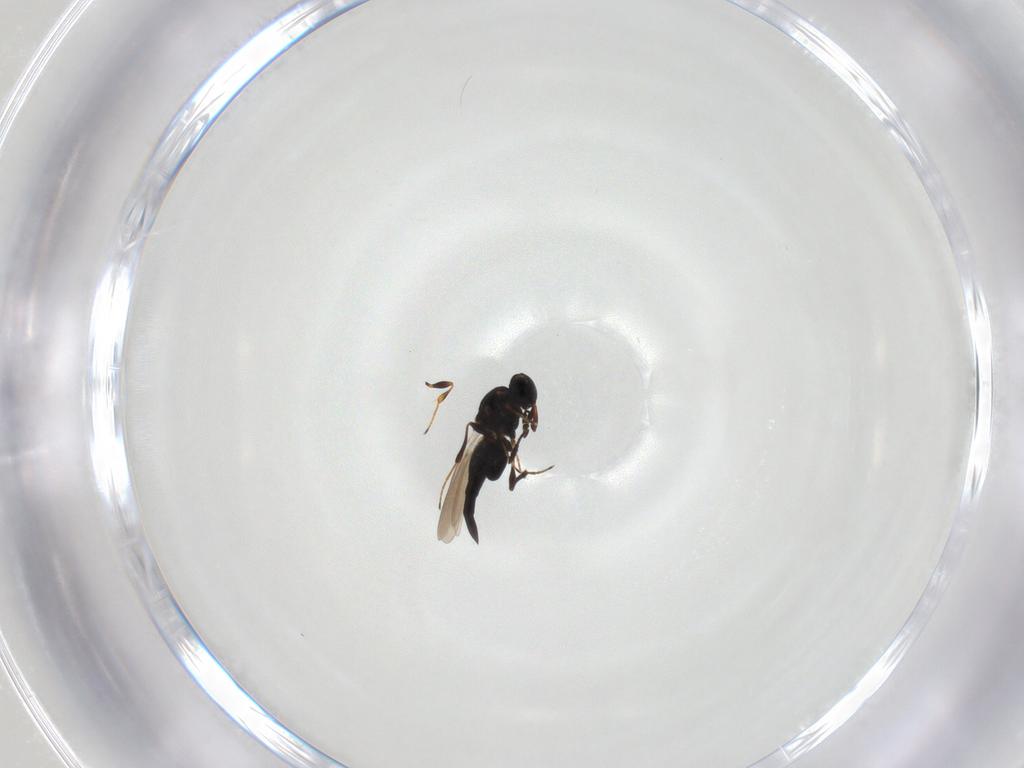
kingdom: Animalia
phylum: Arthropoda
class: Insecta
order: Hymenoptera
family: Platygastridae
